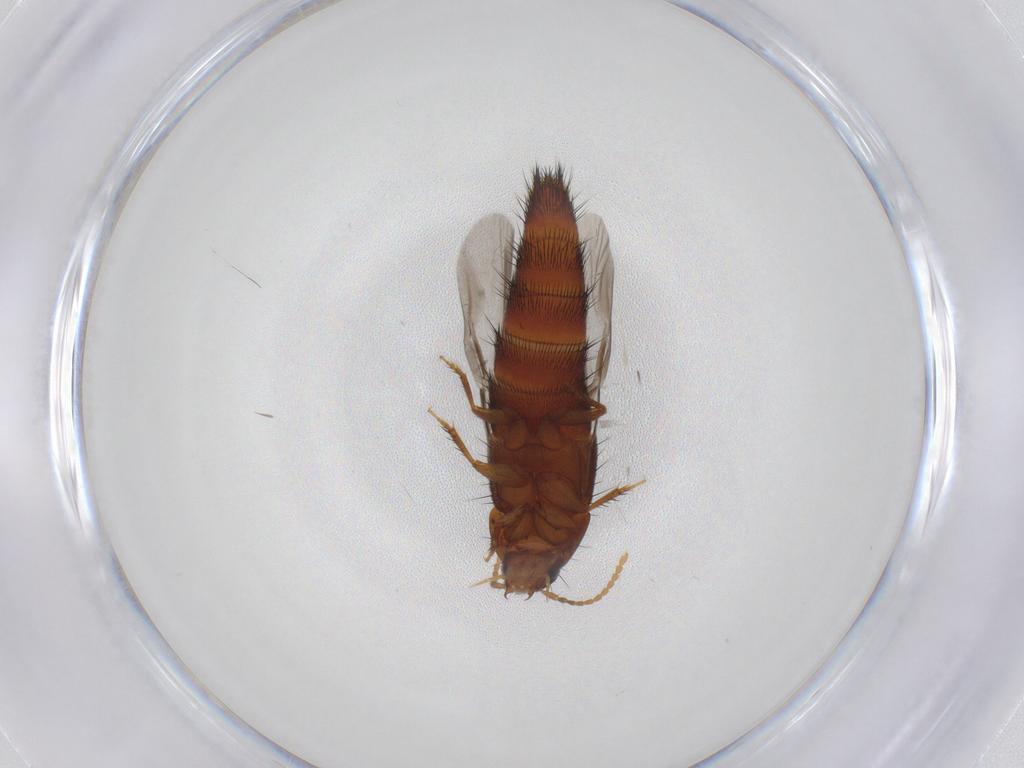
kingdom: Animalia
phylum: Arthropoda
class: Insecta
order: Coleoptera
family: Staphylinidae
